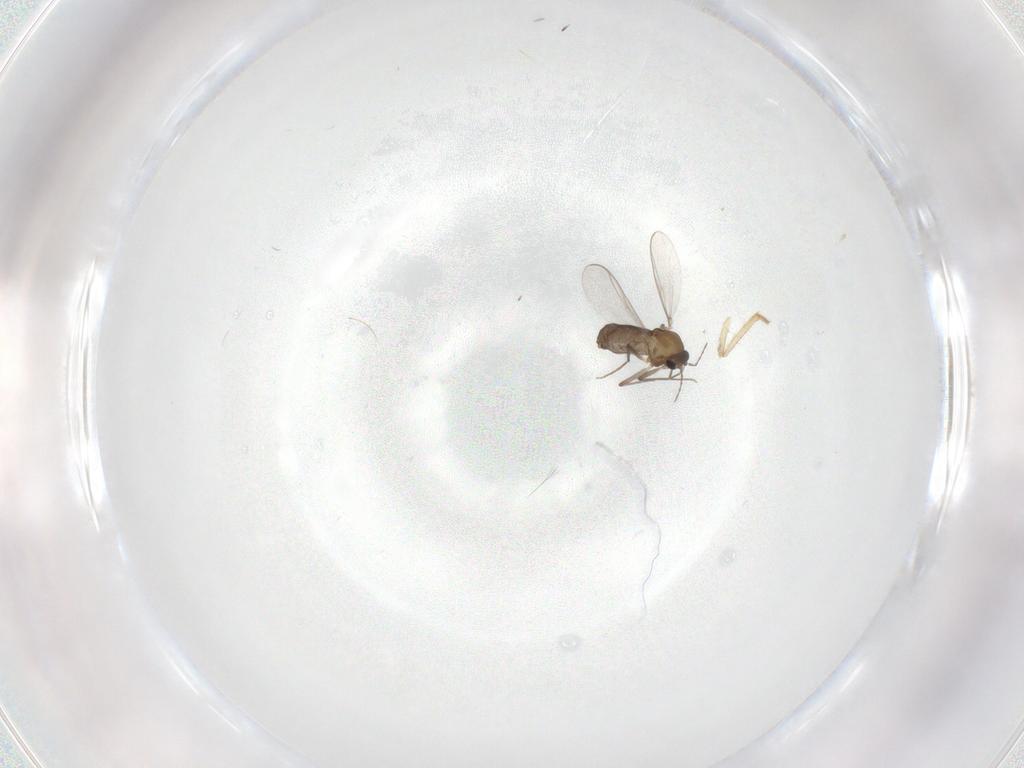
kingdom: Animalia
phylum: Arthropoda
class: Insecta
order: Diptera
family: Chironomidae
